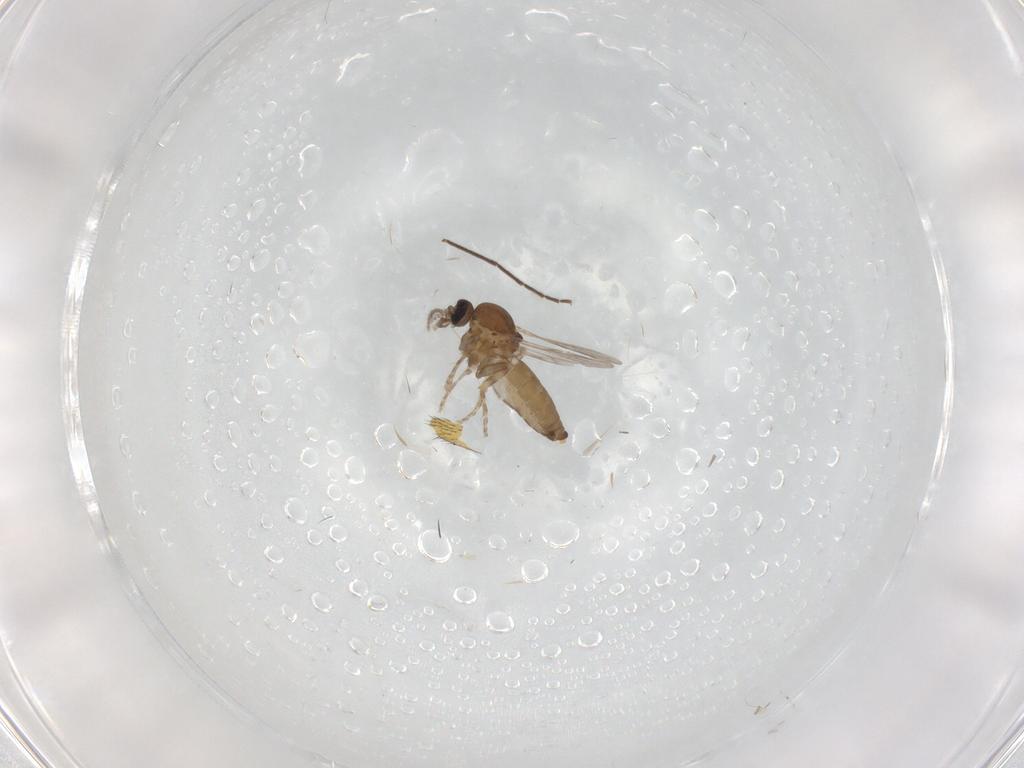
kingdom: Animalia
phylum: Arthropoda
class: Insecta
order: Diptera
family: Ceratopogonidae
